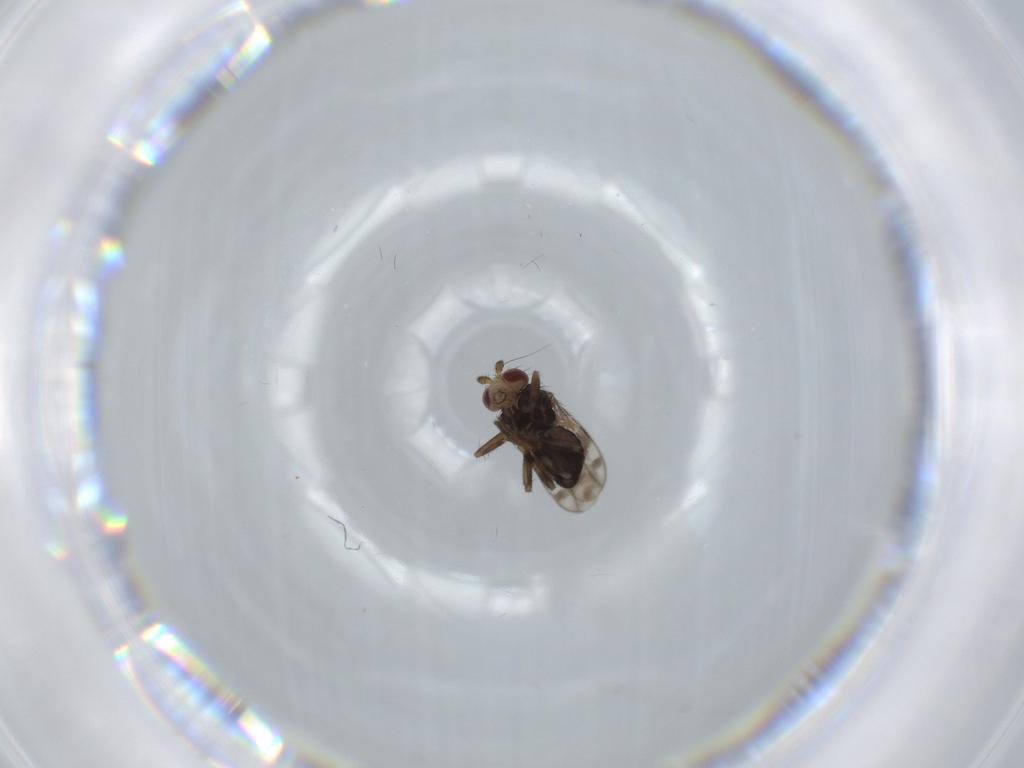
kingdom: Animalia
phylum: Arthropoda
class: Insecta
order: Diptera
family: Sphaeroceridae
